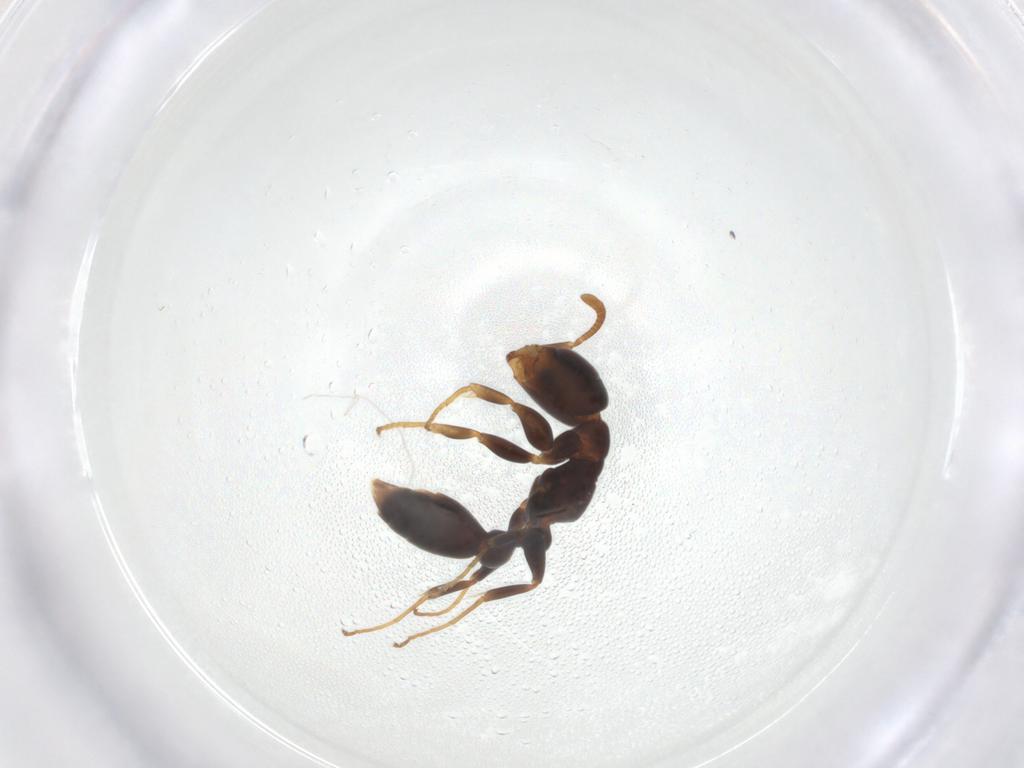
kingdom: Animalia
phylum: Arthropoda
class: Insecta
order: Hymenoptera
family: Formicidae
